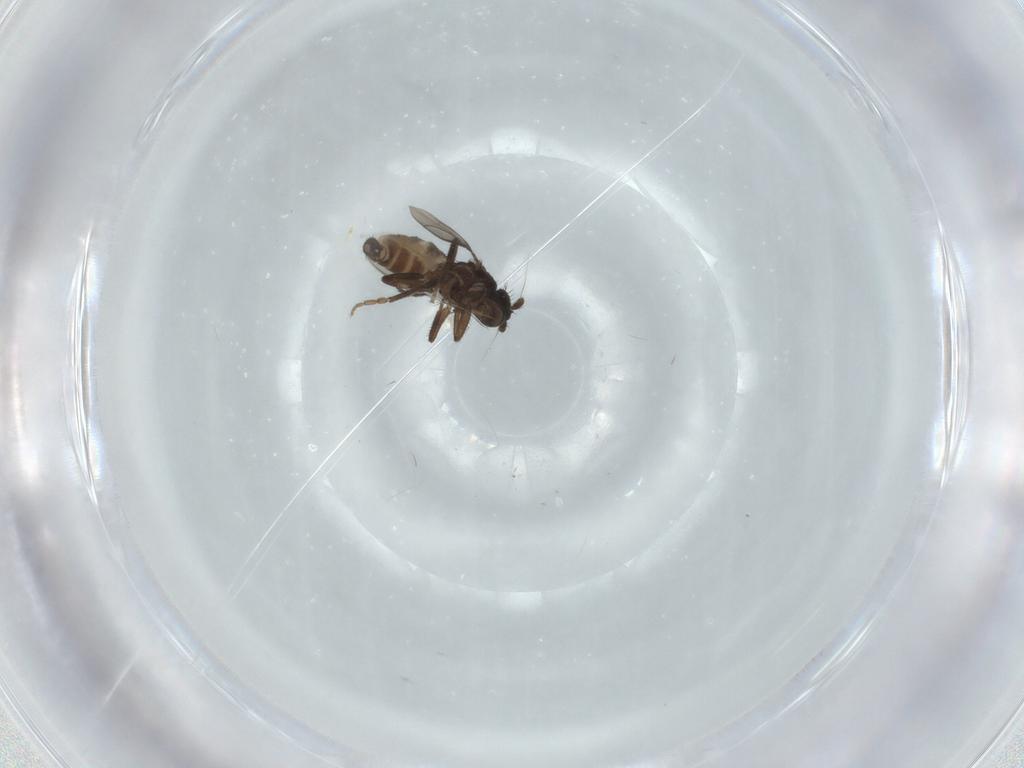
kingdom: Animalia
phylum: Arthropoda
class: Insecta
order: Diptera
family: Sphaeroceridae
